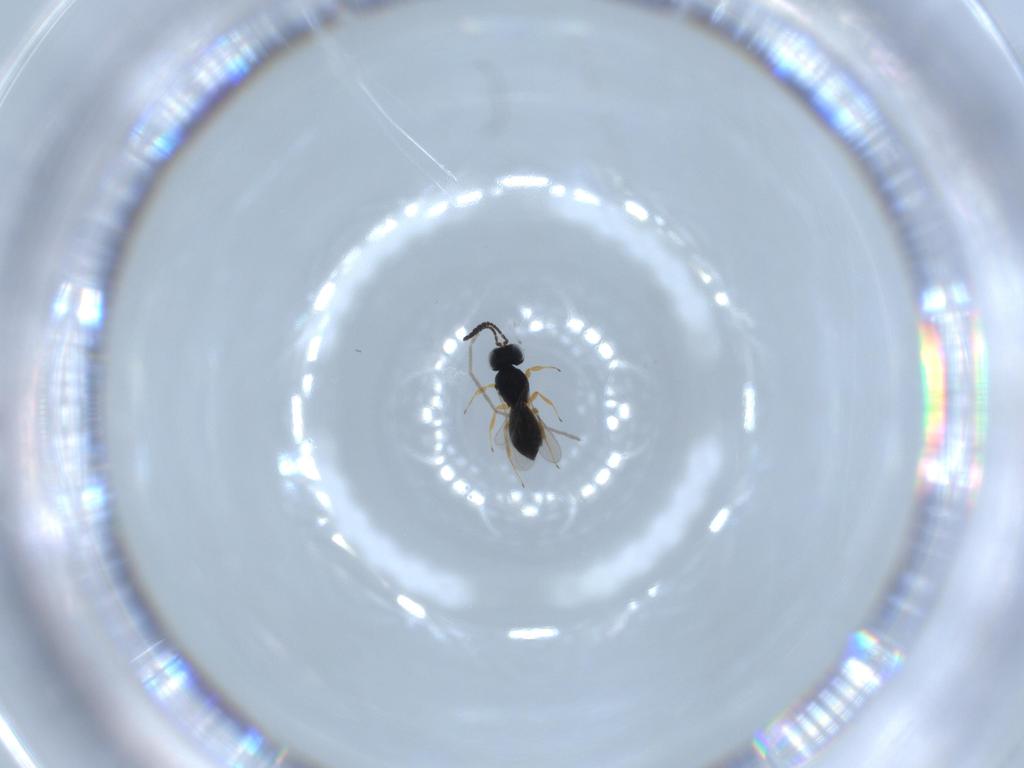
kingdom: Animalia
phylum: Arthropoda
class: Insecta
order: Hymenoptera
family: Scelionidae
